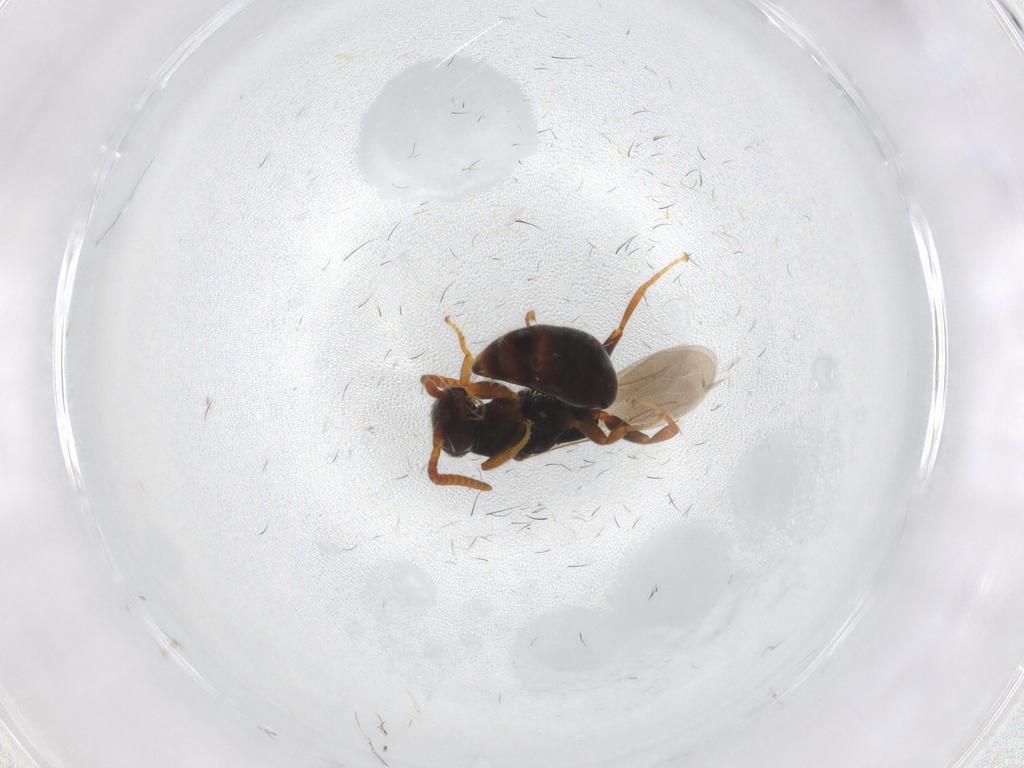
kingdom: Animalia
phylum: Arthropoda
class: Insecta
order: Hymenoptera
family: Bethylidae
